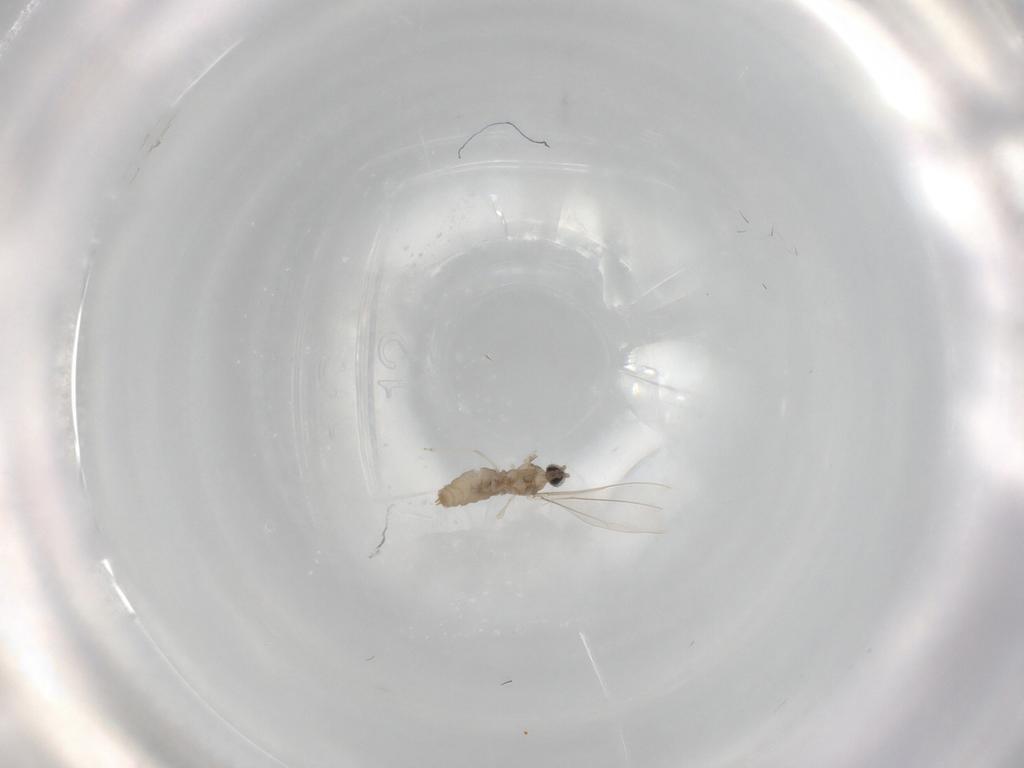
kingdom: Animalia
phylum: Arthropoda
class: Insecta
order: Diptera
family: Cecidomyiidae
